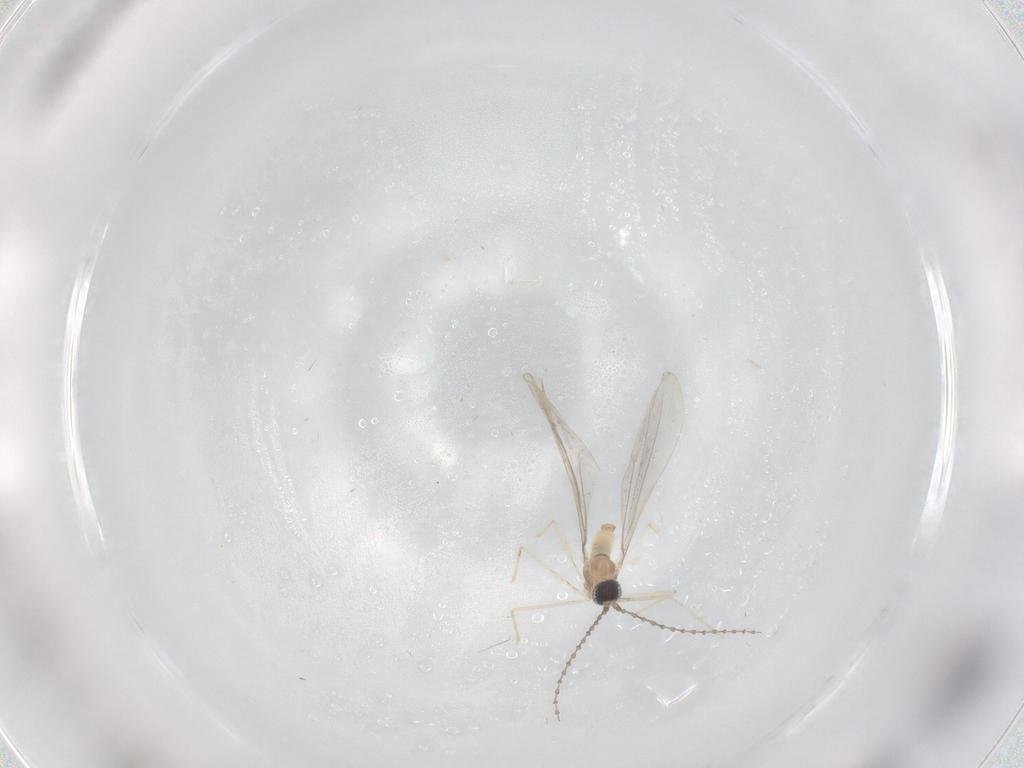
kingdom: Animalia
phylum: Arthropoda
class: Insecta
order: Diptera
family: Cecidomyiidae
